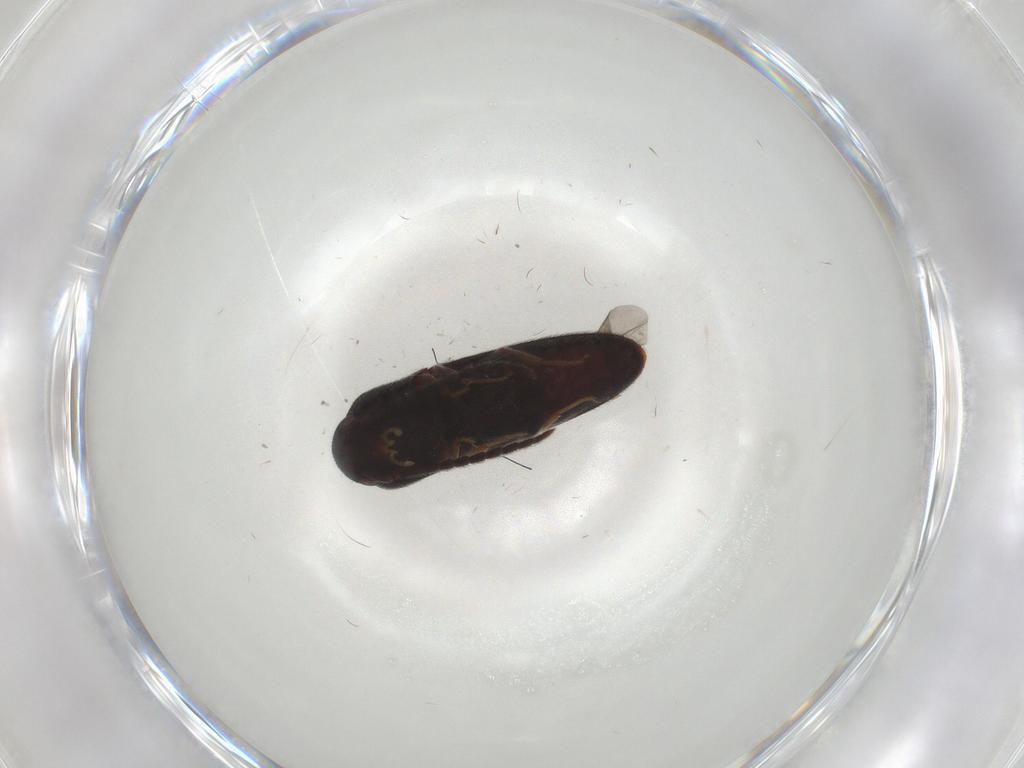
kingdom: Animalia
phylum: Arthropoda
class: Insecta
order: Coleoptera
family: Eucnemidae
